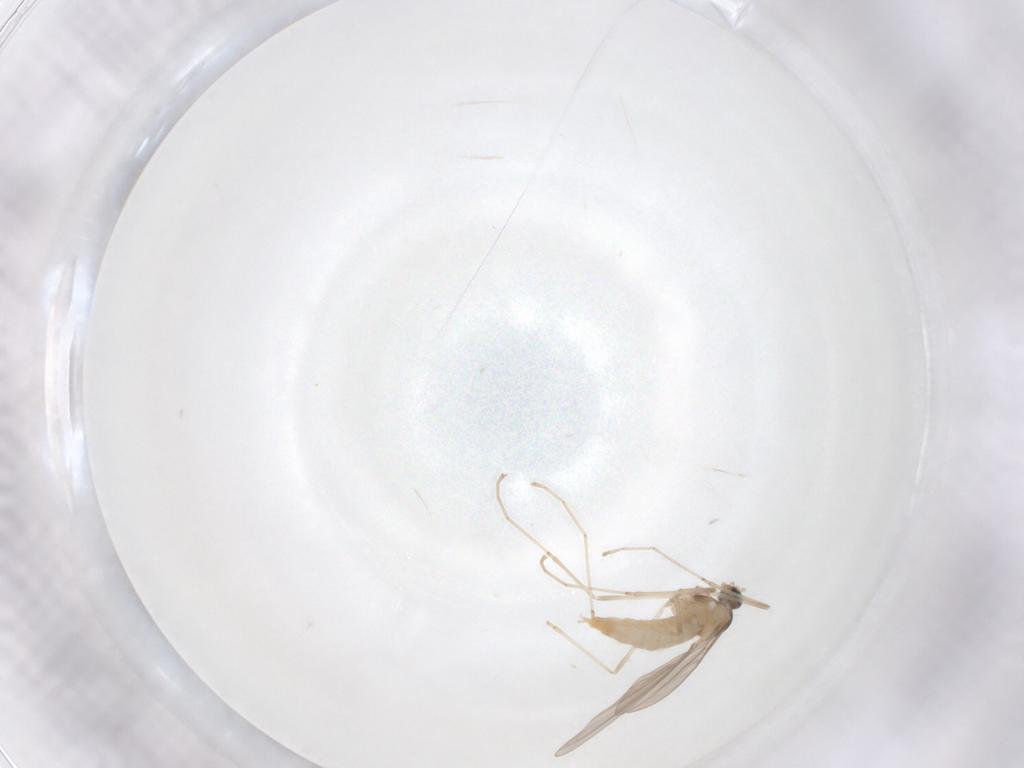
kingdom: Animalia
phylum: Arthropoda
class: Insecta
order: Diptera
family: Cecidomyiidae
